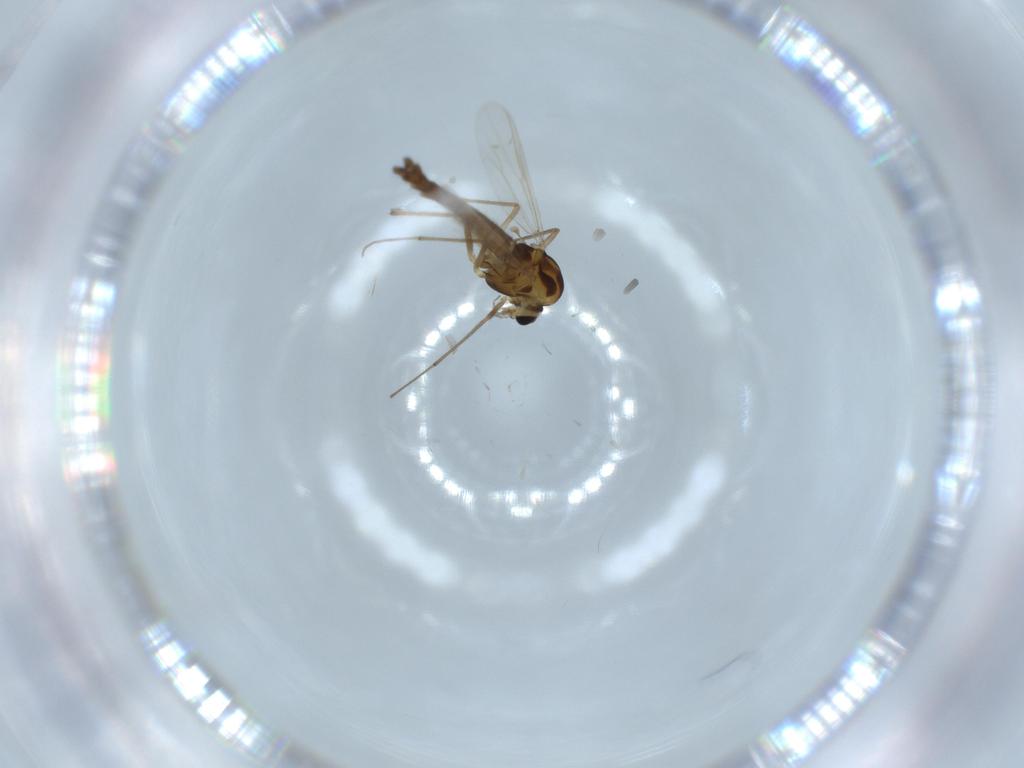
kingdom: Animalia
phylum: Arthropoda
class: Insecta
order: Diptera
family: Chironomidae
